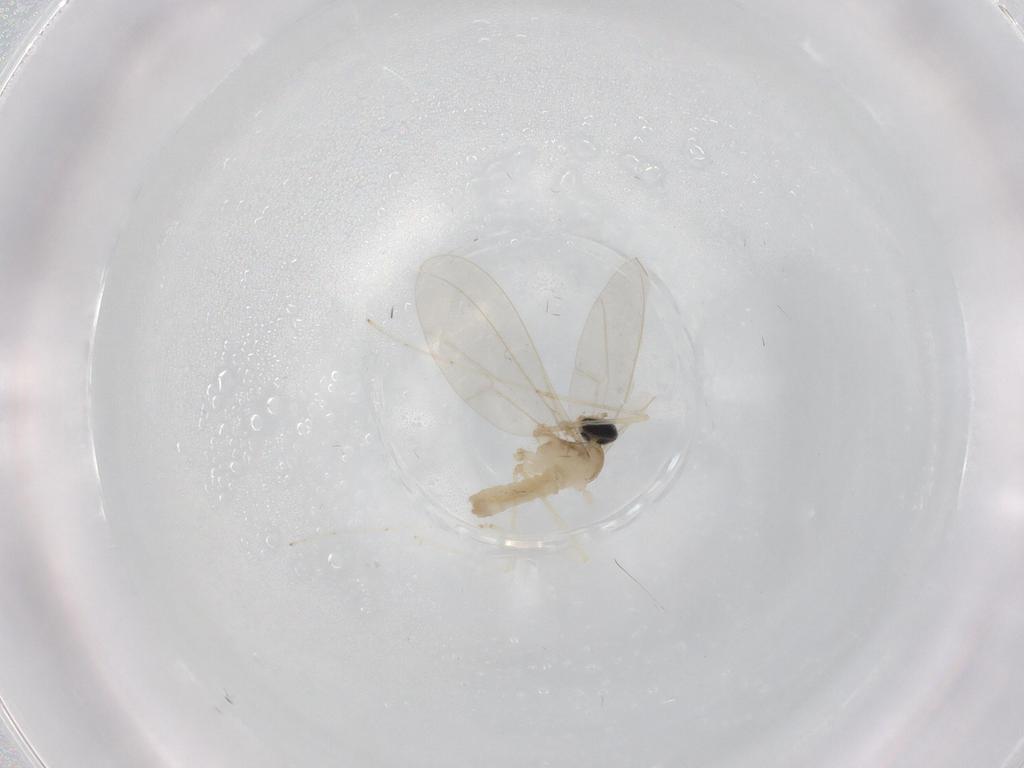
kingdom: Animalia
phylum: Arthropoda
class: Insecta
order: Diptera
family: Cecidomyiidae
